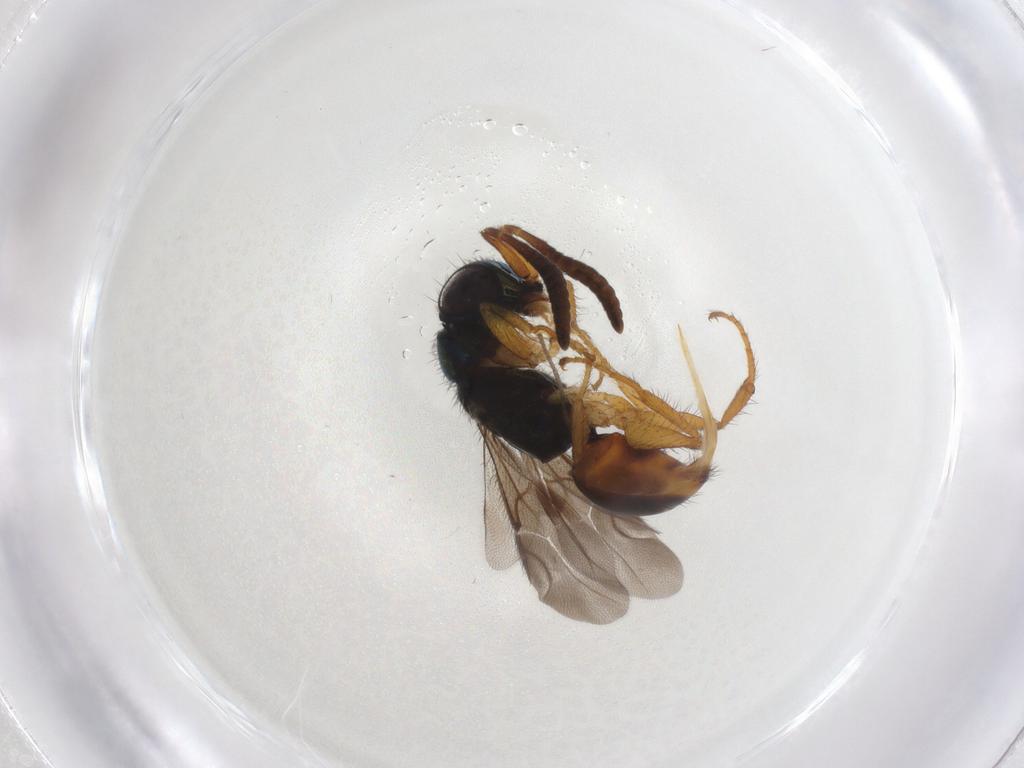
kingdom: Animalia
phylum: Arthropoda
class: Insecta
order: Hymenoptera
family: Chrysididae
